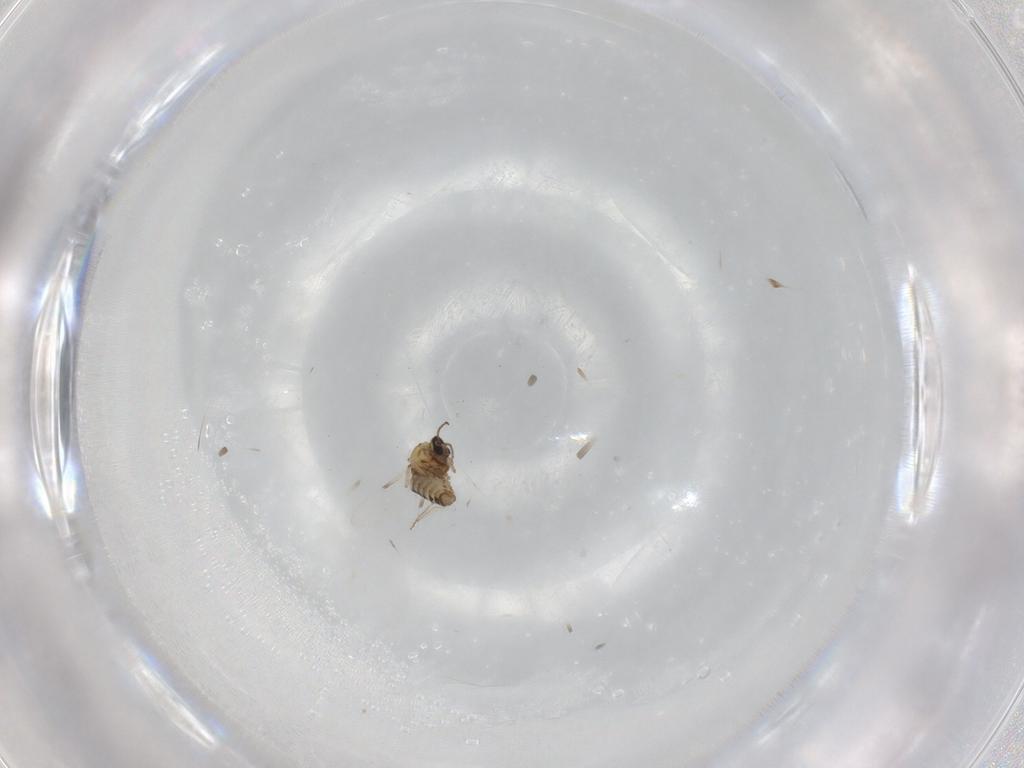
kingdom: Animalia
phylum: Arthropoda
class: Insecta
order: Diptera
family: Ceratopogonidae
